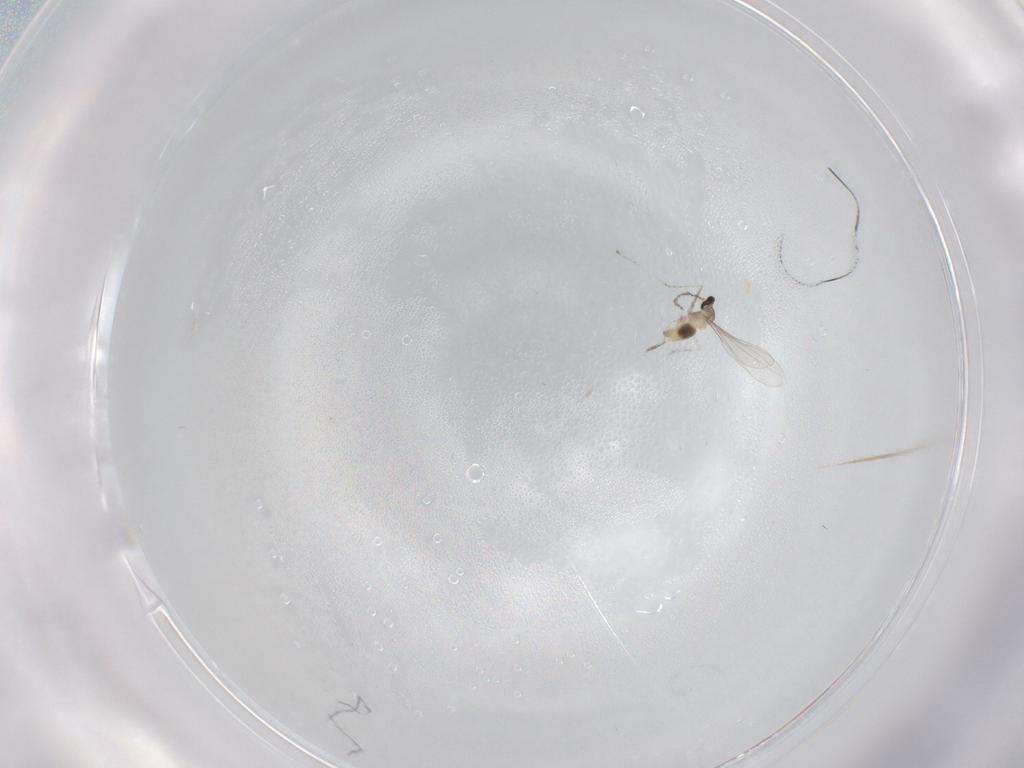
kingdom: Animalia
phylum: Arthropoda
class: Insecta
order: Diptera
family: Cecidomyiidae
